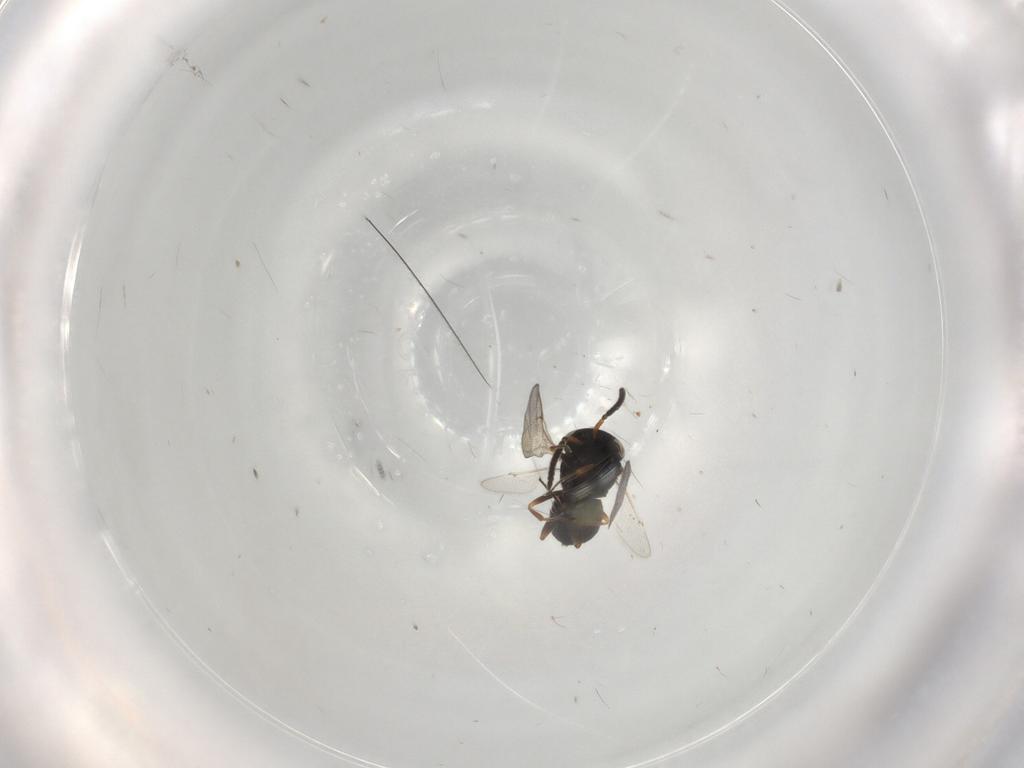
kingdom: Animalia
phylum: Arthropoda
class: Insecta
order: Hymenoptera
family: Scelionidae
